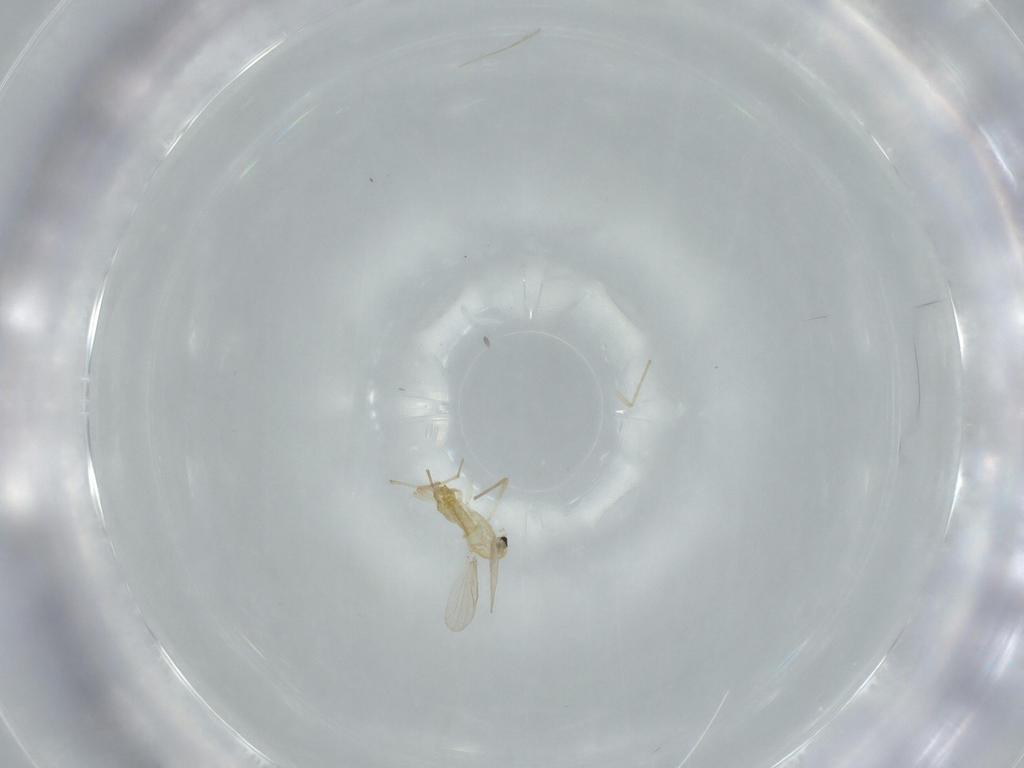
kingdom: Animalia
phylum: Arthropoda
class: Insecta
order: Diptera
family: Chironomidae
